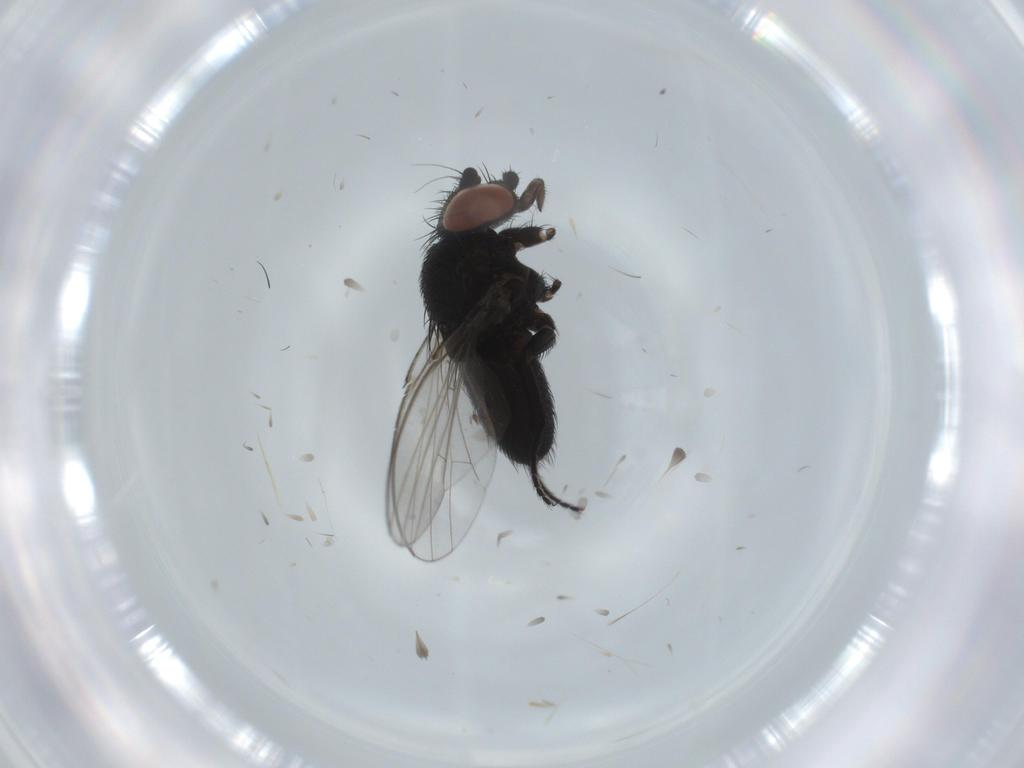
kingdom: Animalia
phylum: Arthropoda
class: Insecta
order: Diptera
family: Milichiidae
